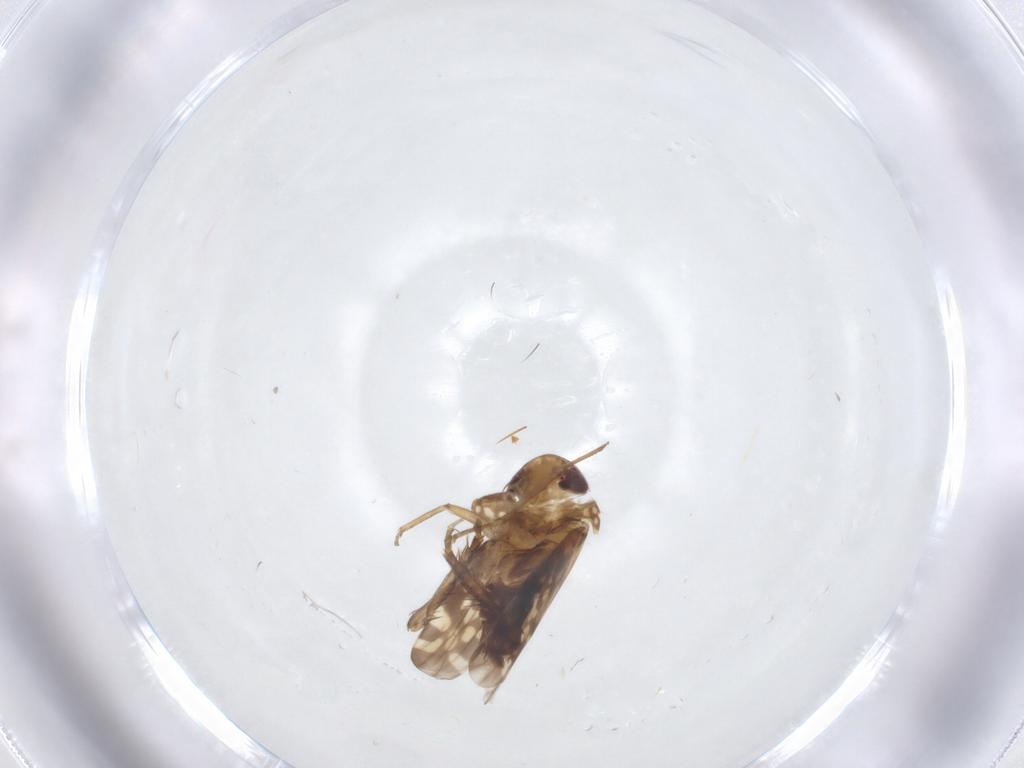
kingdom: Animalia
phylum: Arthropoda
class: Insecta
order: Hemiptera
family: Cicadellidae
